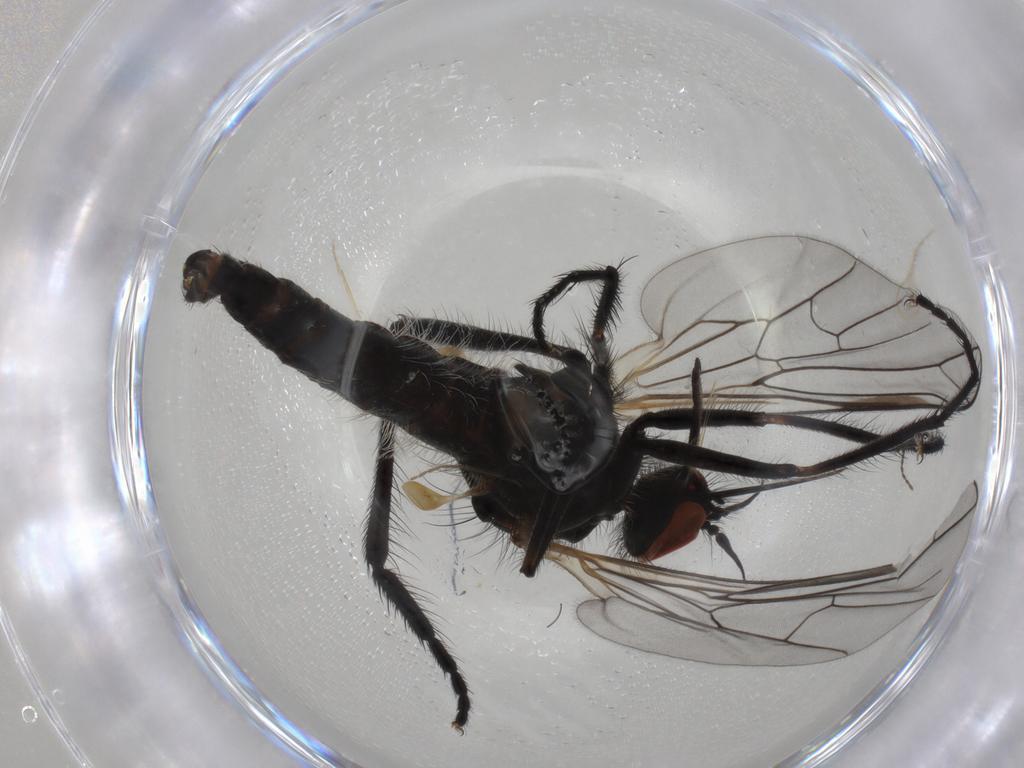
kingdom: Animalia
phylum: Arthropoda
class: Insecta
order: Diptera
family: Empididae
